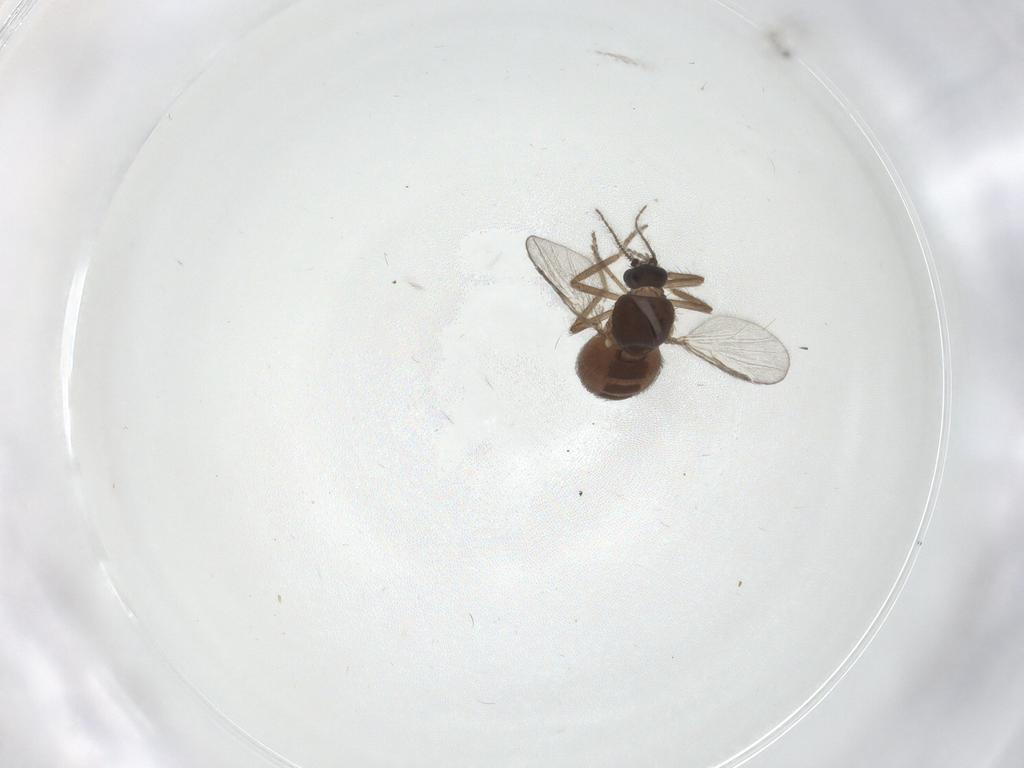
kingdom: Animalia
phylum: Arthropoda
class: Insecta
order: Diptera
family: Ceratopogonidae
